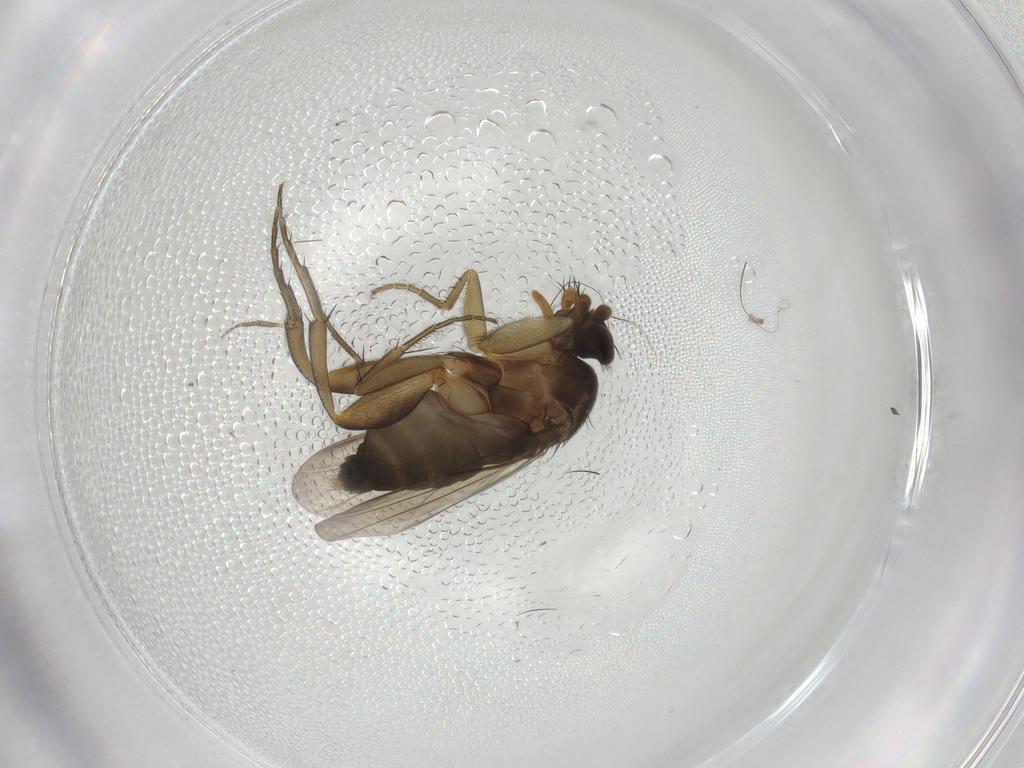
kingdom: Animalia
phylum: Arthropoda
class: Insecta
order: Diptera
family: Phoridae
